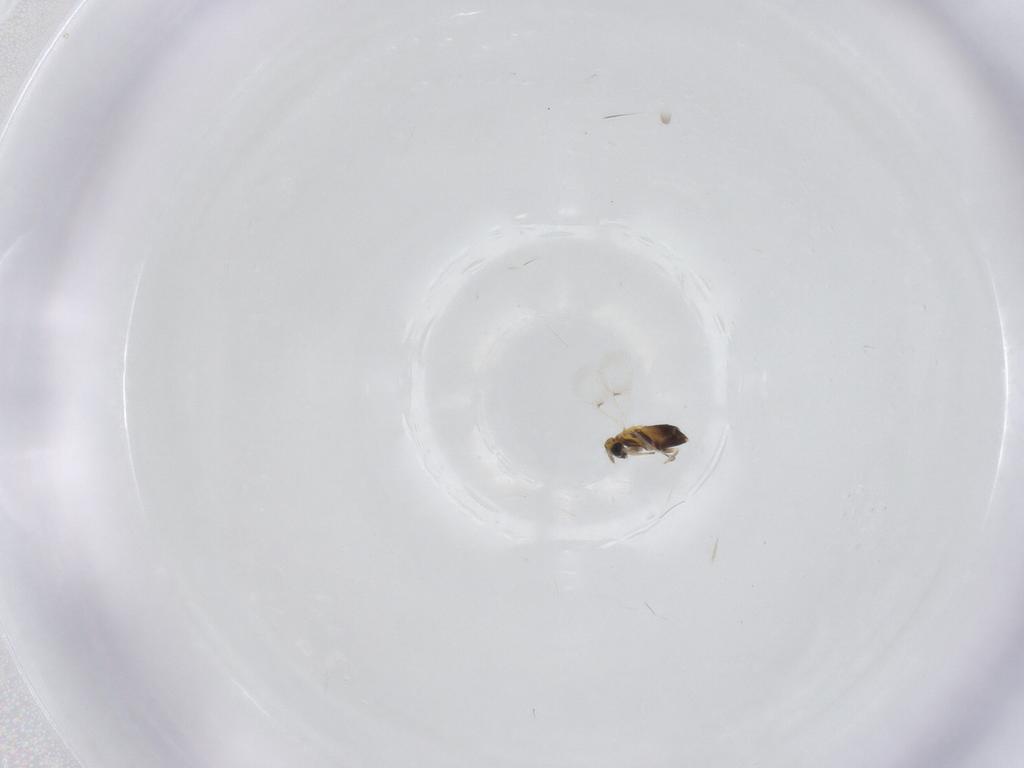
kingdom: Animalia
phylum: Arthropoda
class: Insecta
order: Hymenoptera
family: Trichogrammatidae
